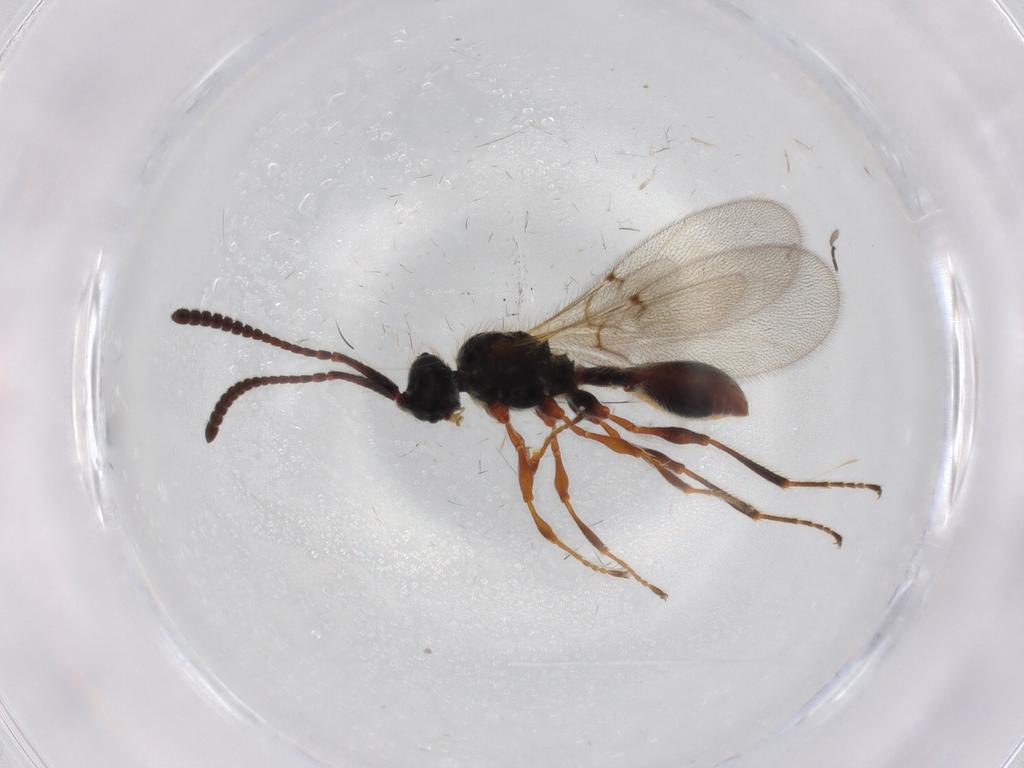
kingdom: Animalia
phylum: Arthropoda
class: Insecta
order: Hymenoptera
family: Diapriidae
